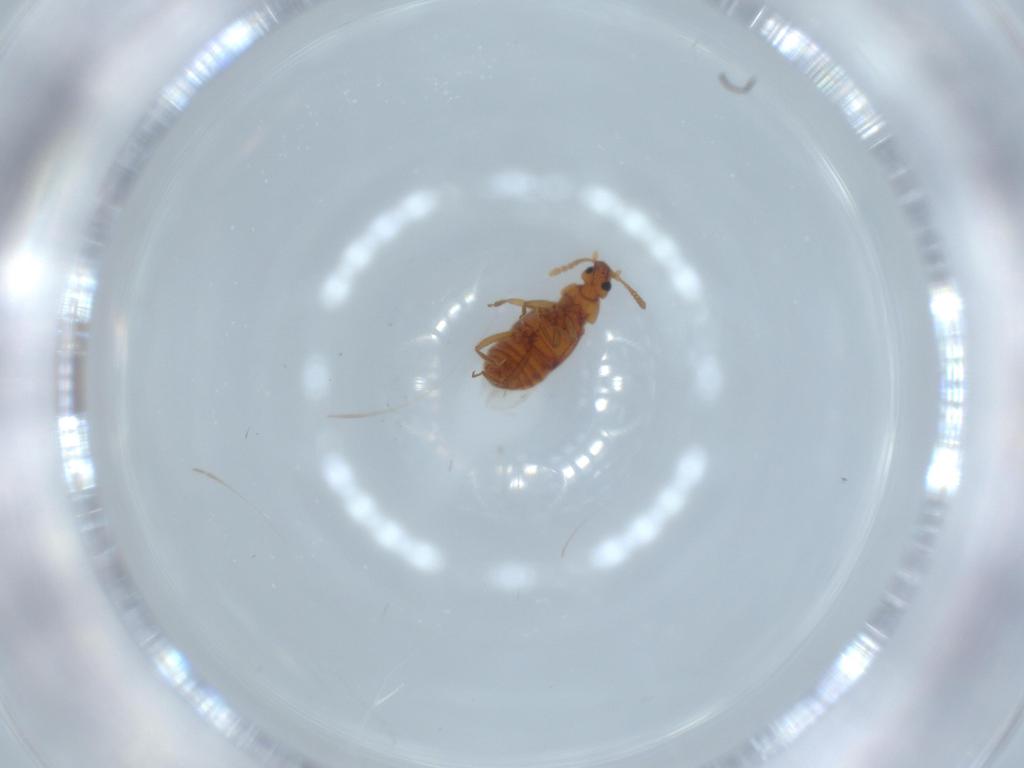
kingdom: Animalia
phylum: Arthropoda
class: Insecta
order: Coleoptera
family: Staphylinidae
